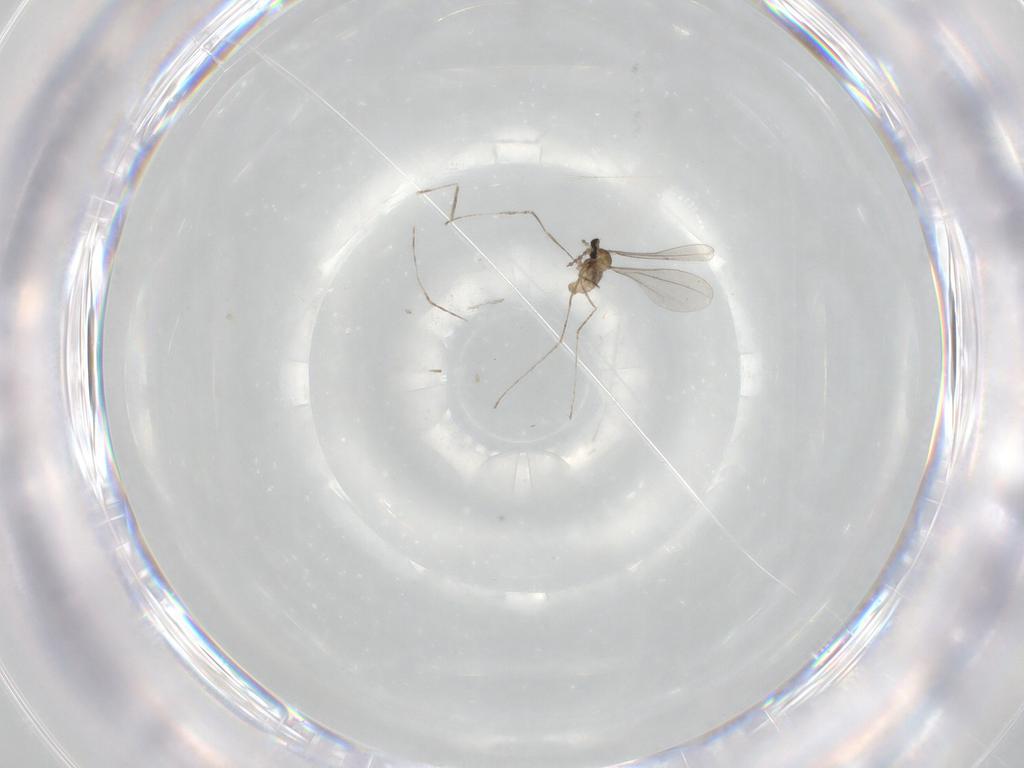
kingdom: Animalia
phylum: Arthropoda
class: Insecta
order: Diptera
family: Cecidomyiidae
